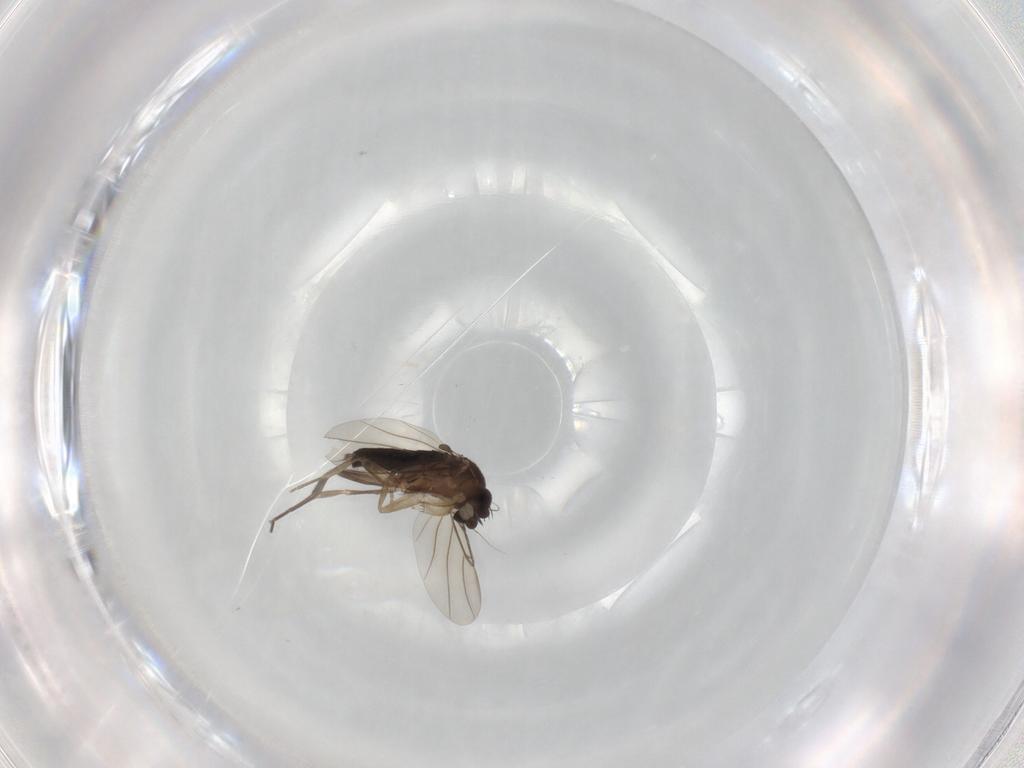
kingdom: Animalia
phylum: Arthropoda
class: Insecta
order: Diptera
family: Phoridae
